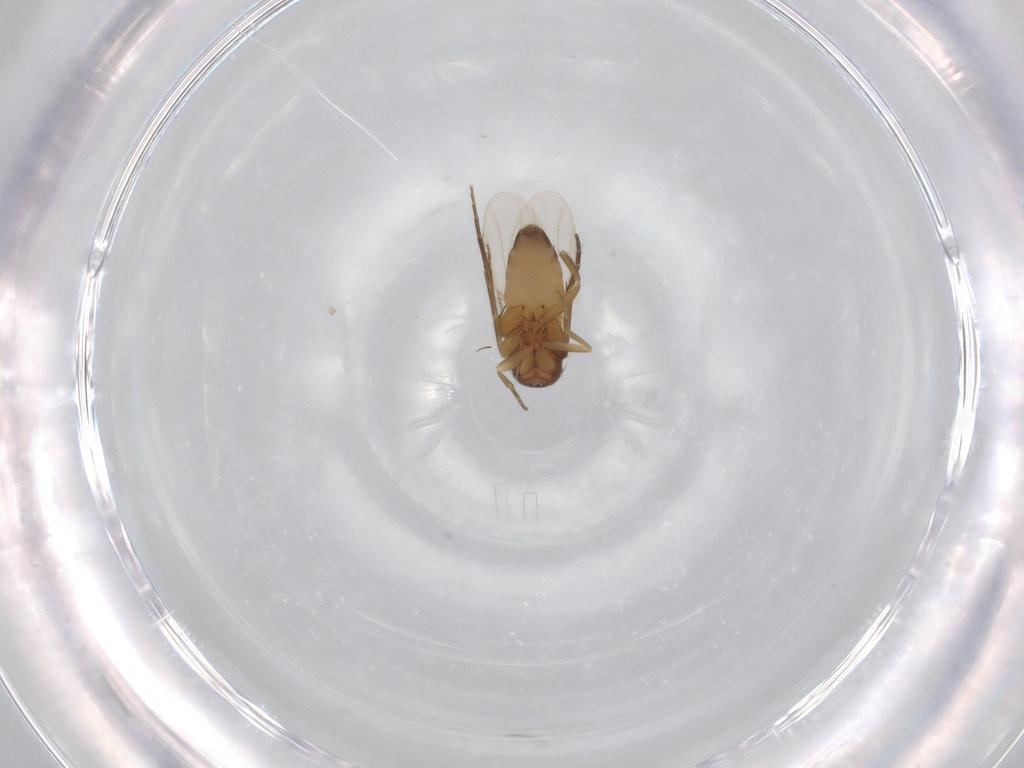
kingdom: Animalia
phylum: Arthropoda
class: Insecta
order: Diptera
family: Phoridae
